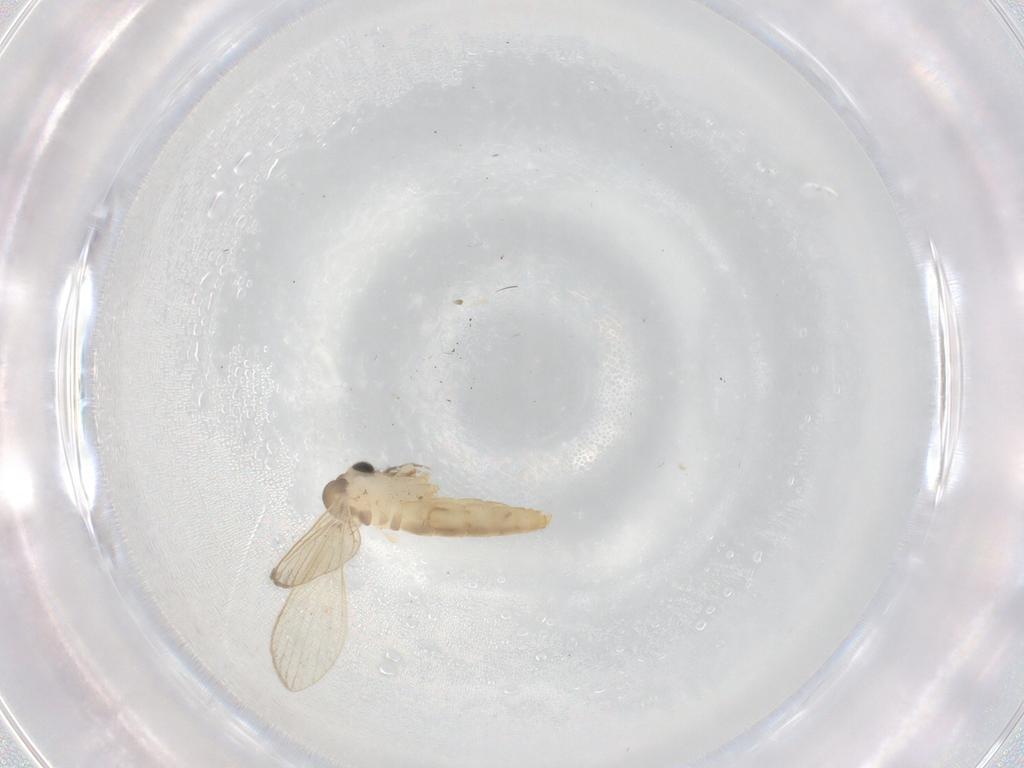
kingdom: Animalia
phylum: Arthropoda
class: Insecta
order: Diptera
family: Psychodidae
